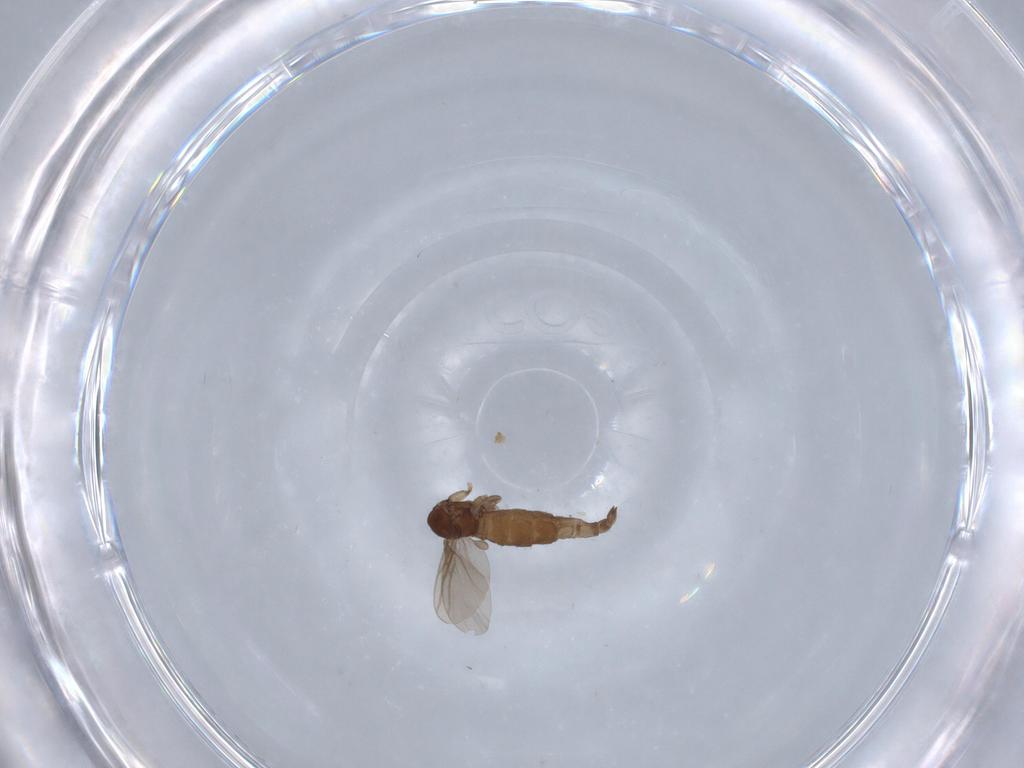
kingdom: Animalia
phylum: Arthropoda
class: Insecta
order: Diptera
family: Sciaridae
